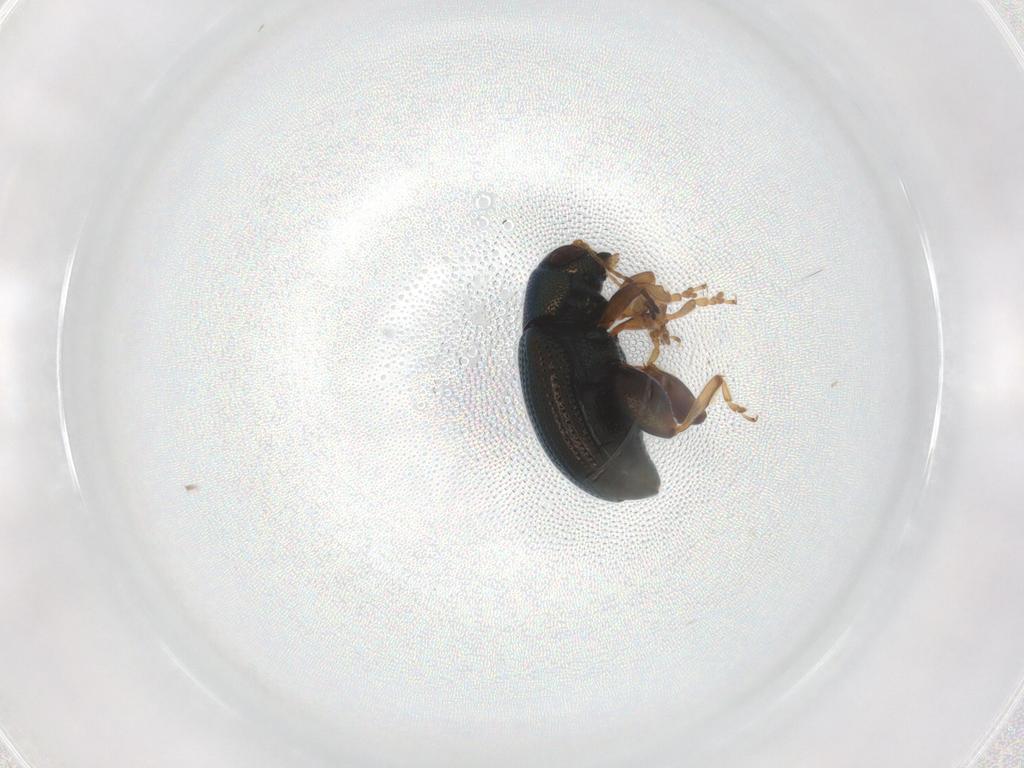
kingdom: Animalia
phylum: Arthropoda
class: Insecta
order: Coleoptera
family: Chrysomelidae
